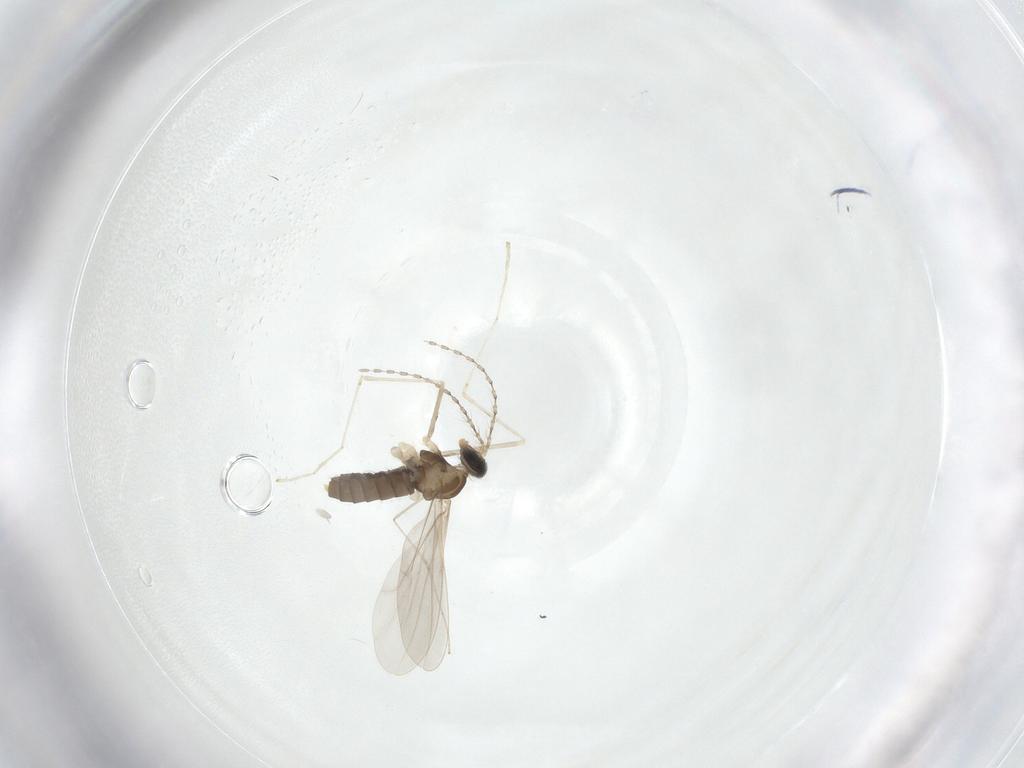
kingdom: Animalia
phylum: Arthropoda
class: Insecta
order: Diptera
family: Cecidomyiidae
